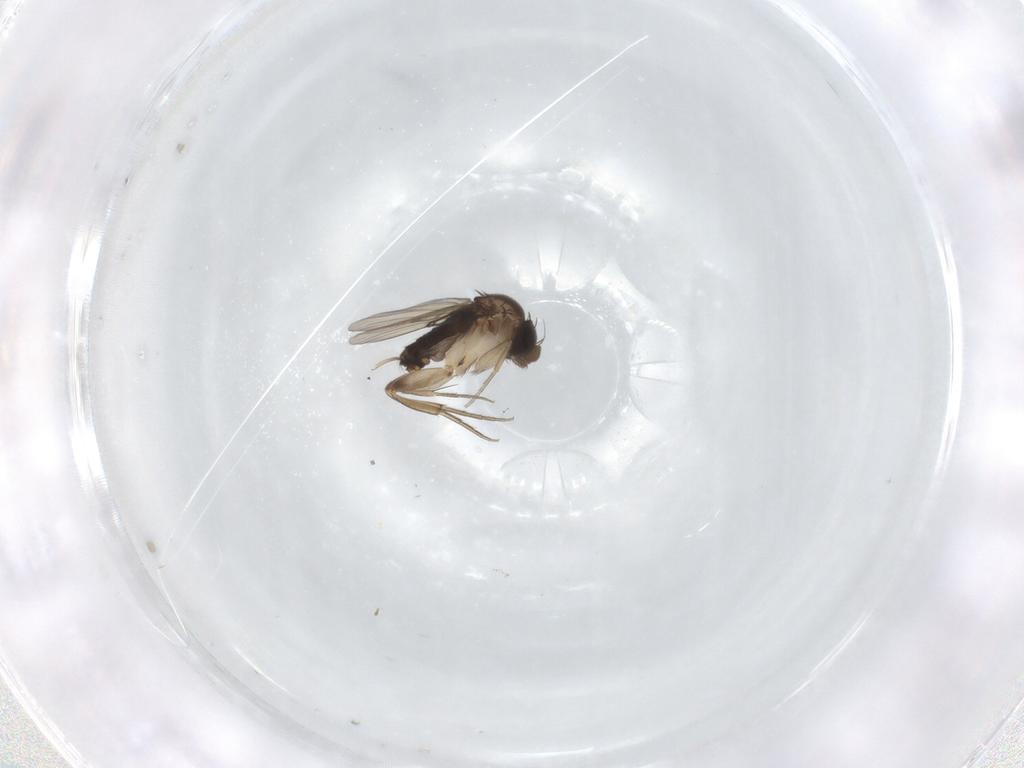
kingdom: Animalia
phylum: Arthropoda
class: Insecta
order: Diptera
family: Phoridae
